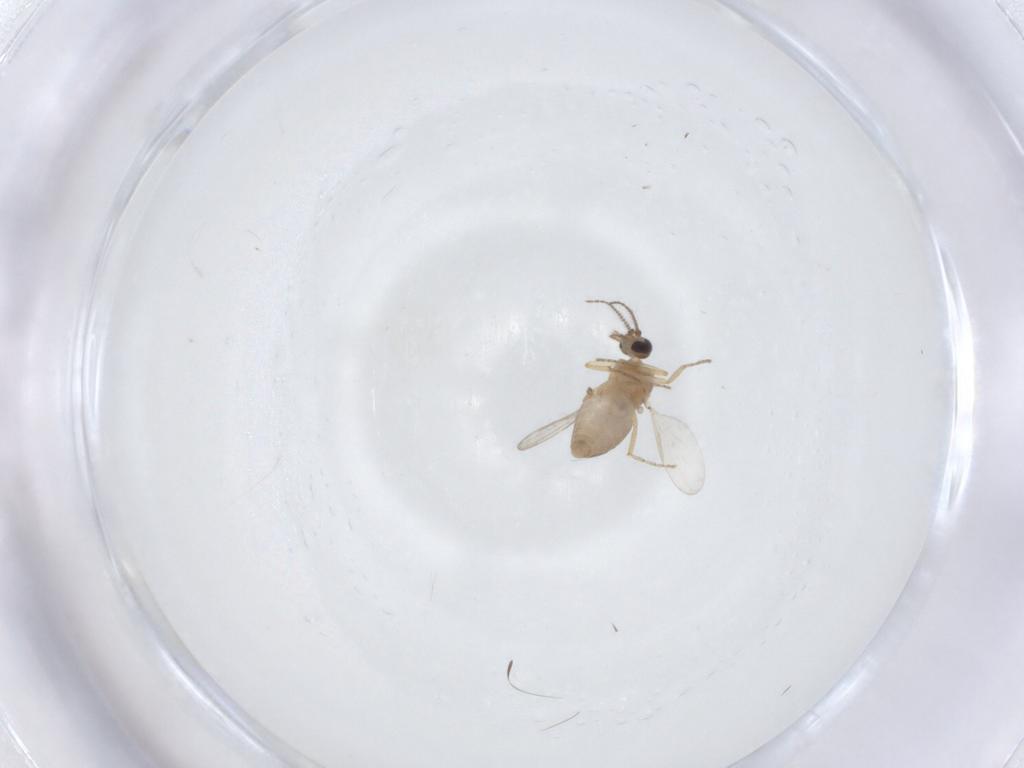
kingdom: Animalia
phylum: Arthropoda
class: Insecta
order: Diptera
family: Ceratopogonidae
